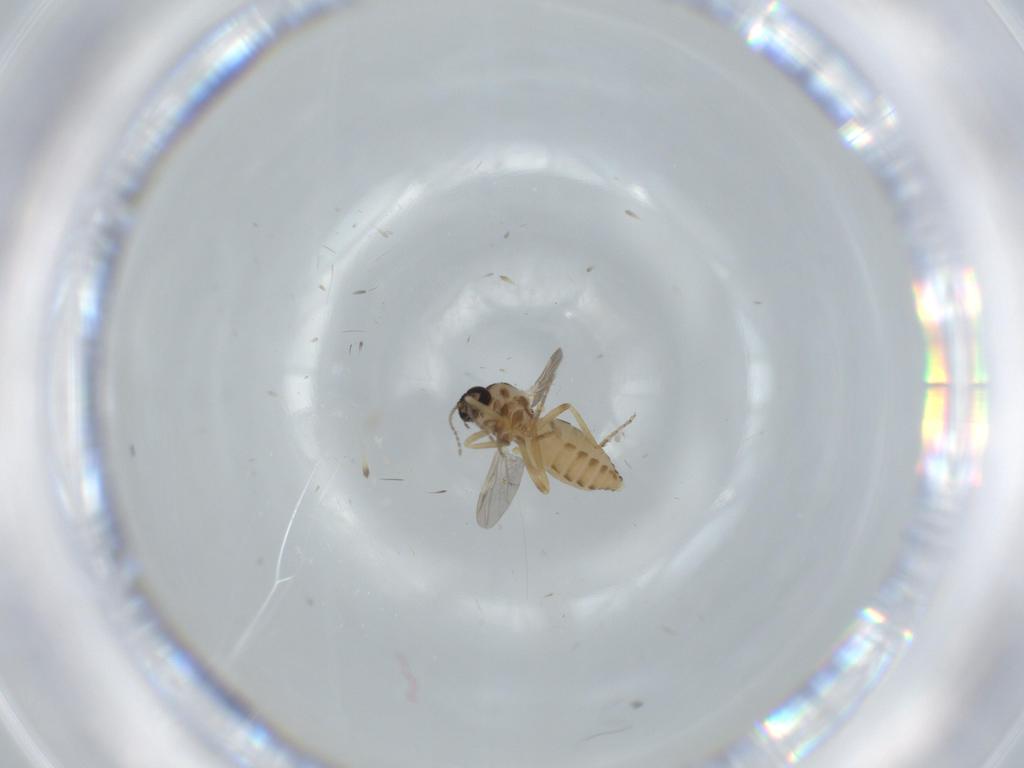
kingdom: Animalia
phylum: Arthropoda
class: Insecta
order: Diptera
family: Ceratopogonidae
